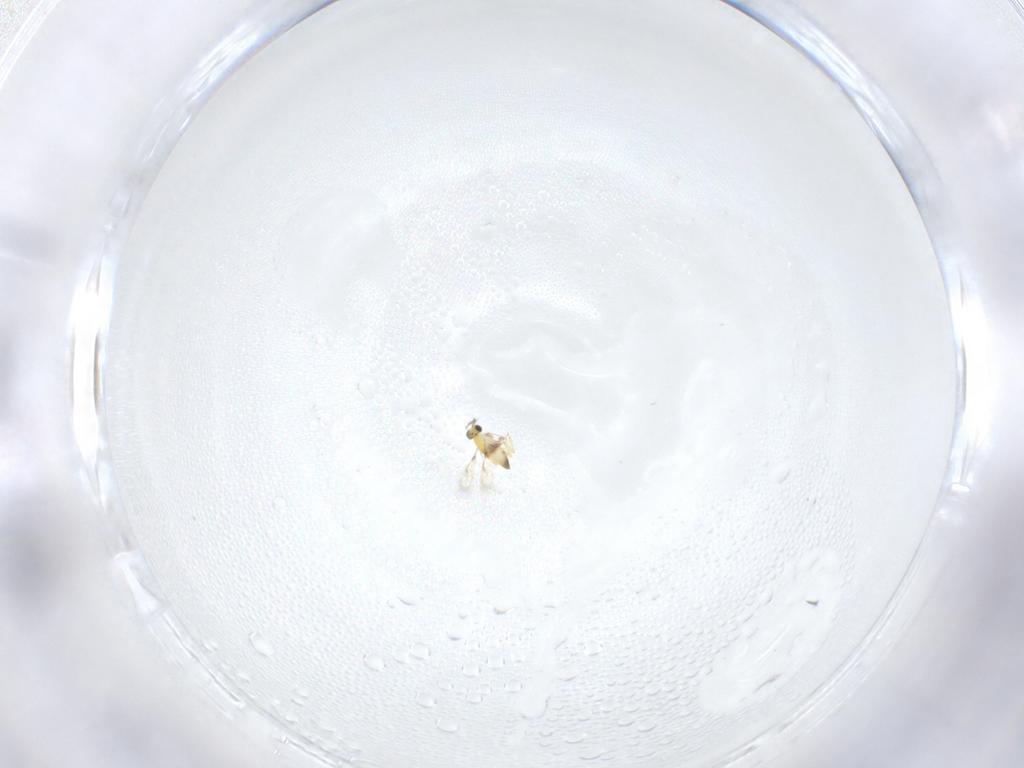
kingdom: Animalia
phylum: Arthropoda
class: Insecta
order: Hymenoptera
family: Trichogrammatidae
